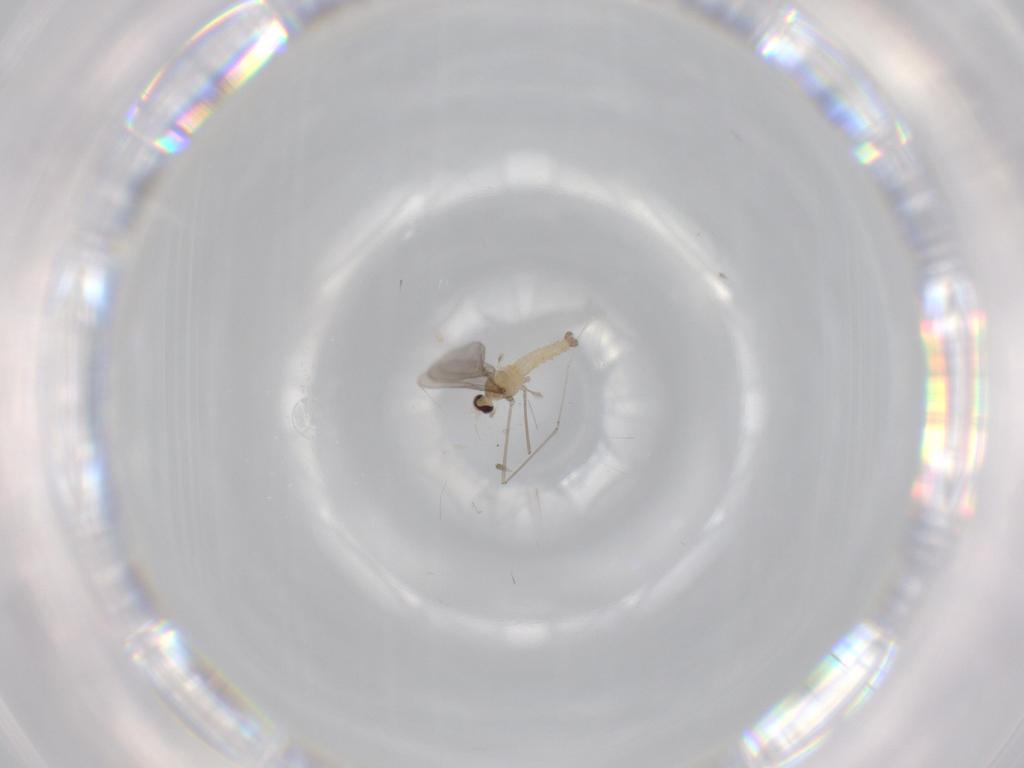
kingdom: Animalia
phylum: Arthropoda
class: Insecta
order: Diptera
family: Cecidomyiidae
